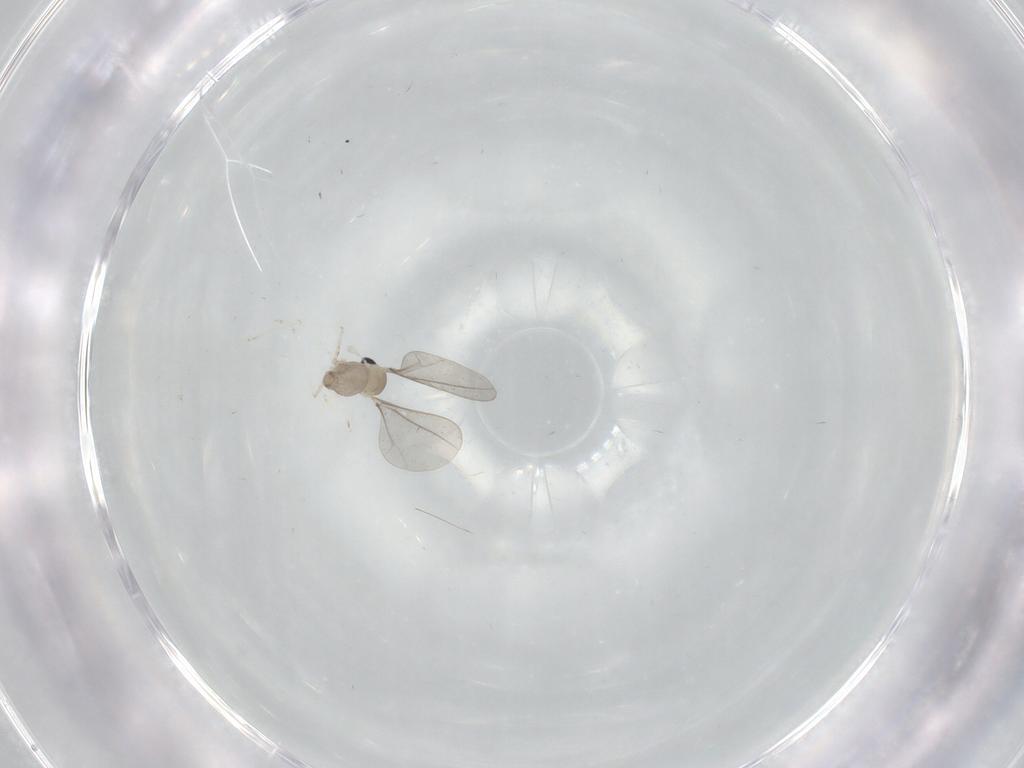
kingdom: Animalia
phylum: Arthropoda
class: Insecta
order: Diptera
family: Cecidomyiidae
